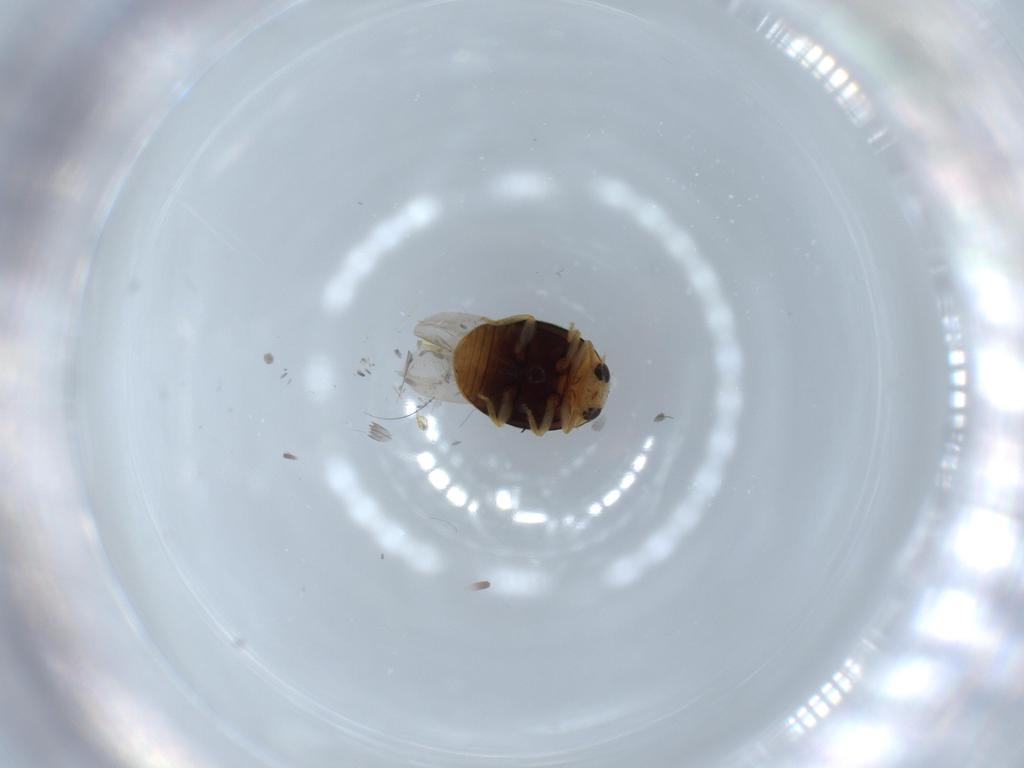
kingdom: Animalia
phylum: Arthropoda
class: Insecta
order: Coleoptera
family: Coccinellidae
